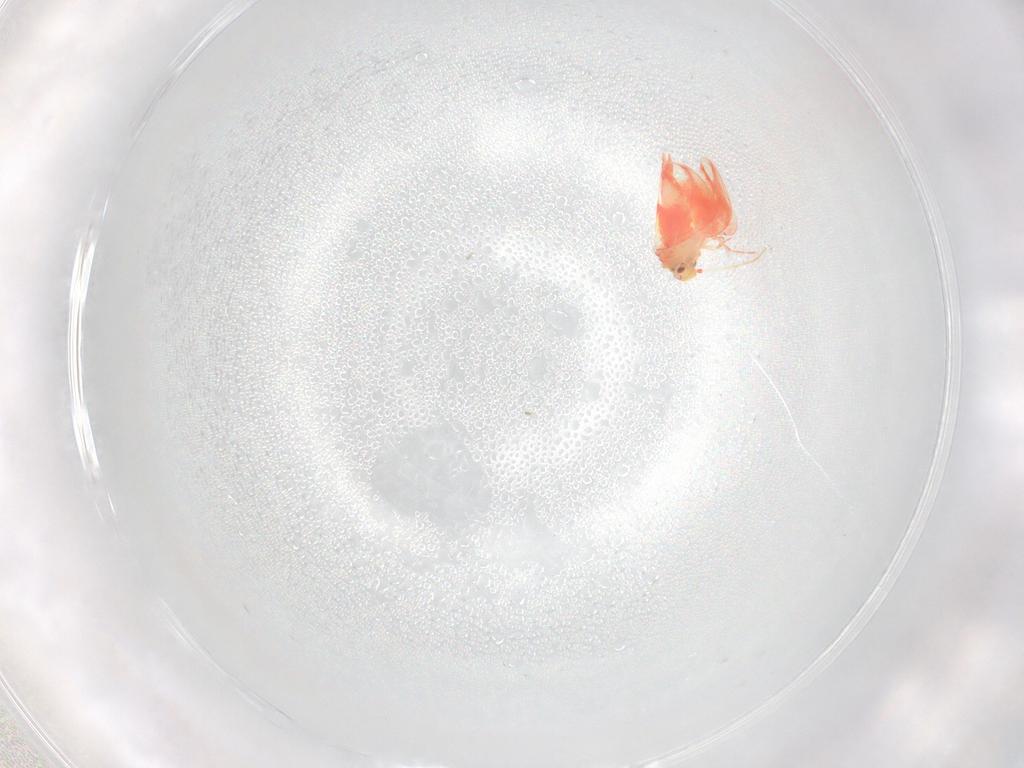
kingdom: Animalia
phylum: Arthropoda
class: Insecta
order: Hemiptera
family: Aleyrodidae
